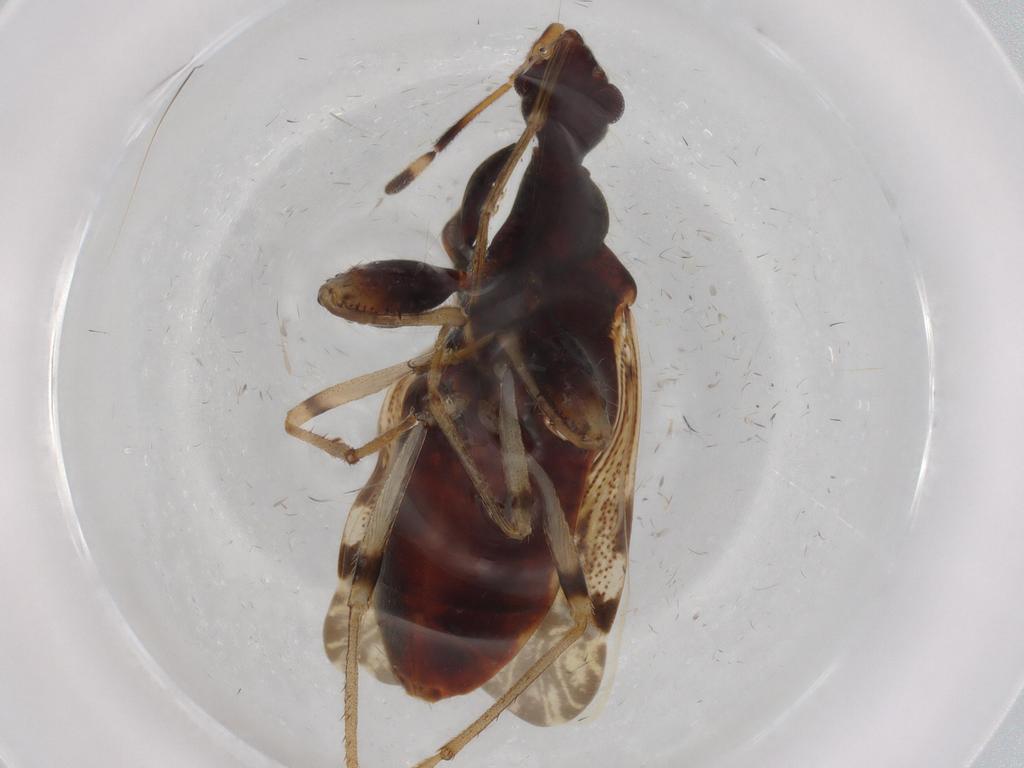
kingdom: Animalia
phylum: Arthropoda
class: Insecta
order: Hemiptera
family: Rhyparochromidae
